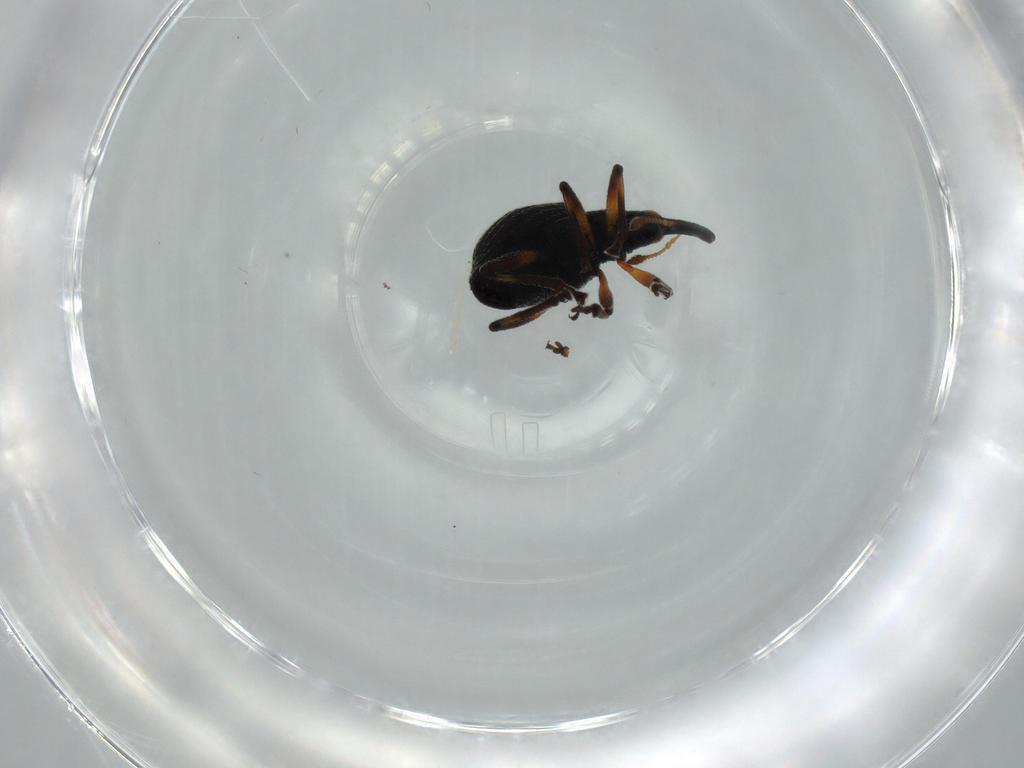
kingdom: Animalia
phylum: Arthropoda
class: Insecta
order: Coleoptera
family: Brentidae
